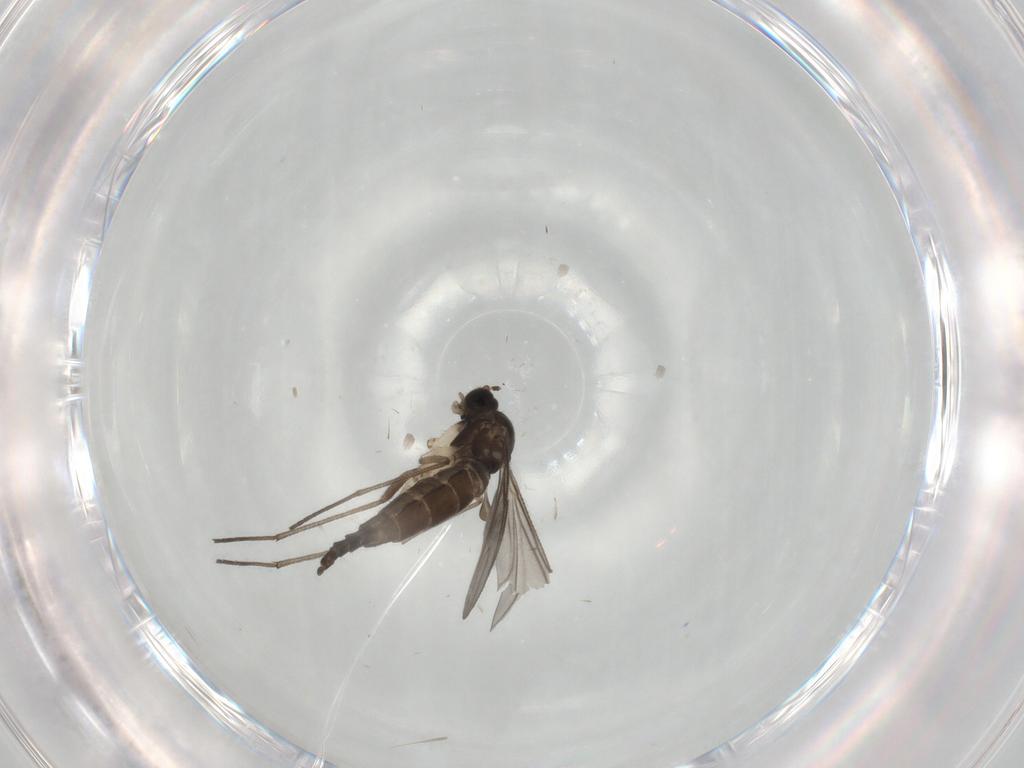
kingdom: Animalia
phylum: Arthropoda
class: Insecta
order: Diptera
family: Sciaridae
